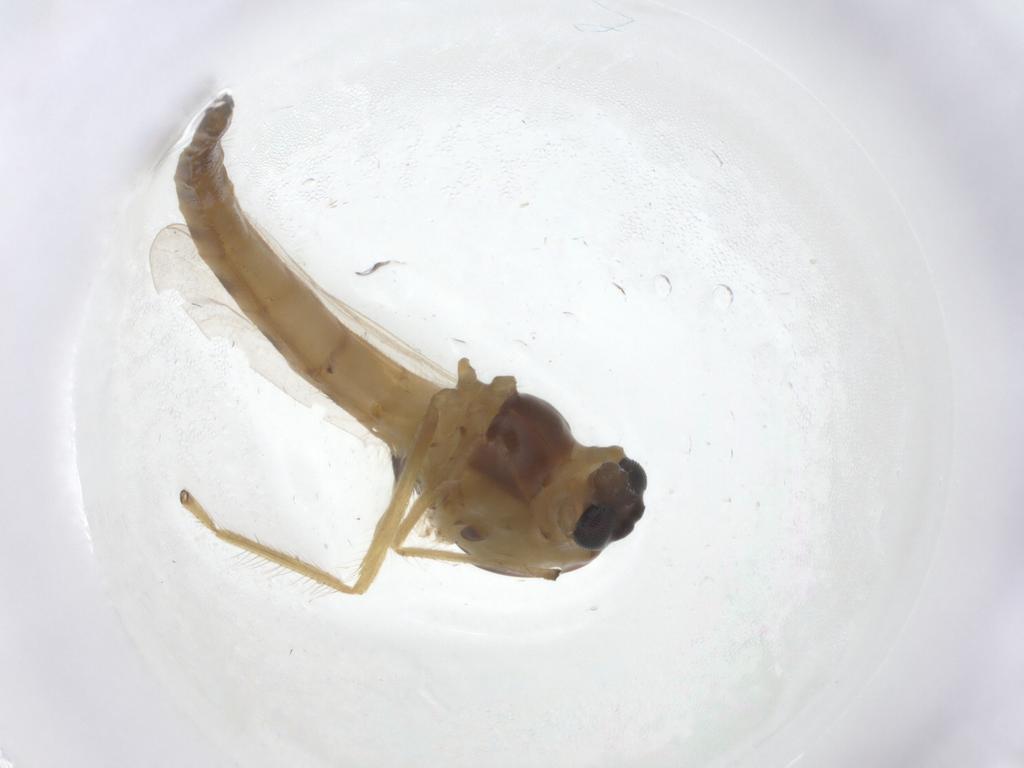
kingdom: Animalia
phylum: Arthropoda
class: Insecta
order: Diptera
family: Chironomidae
